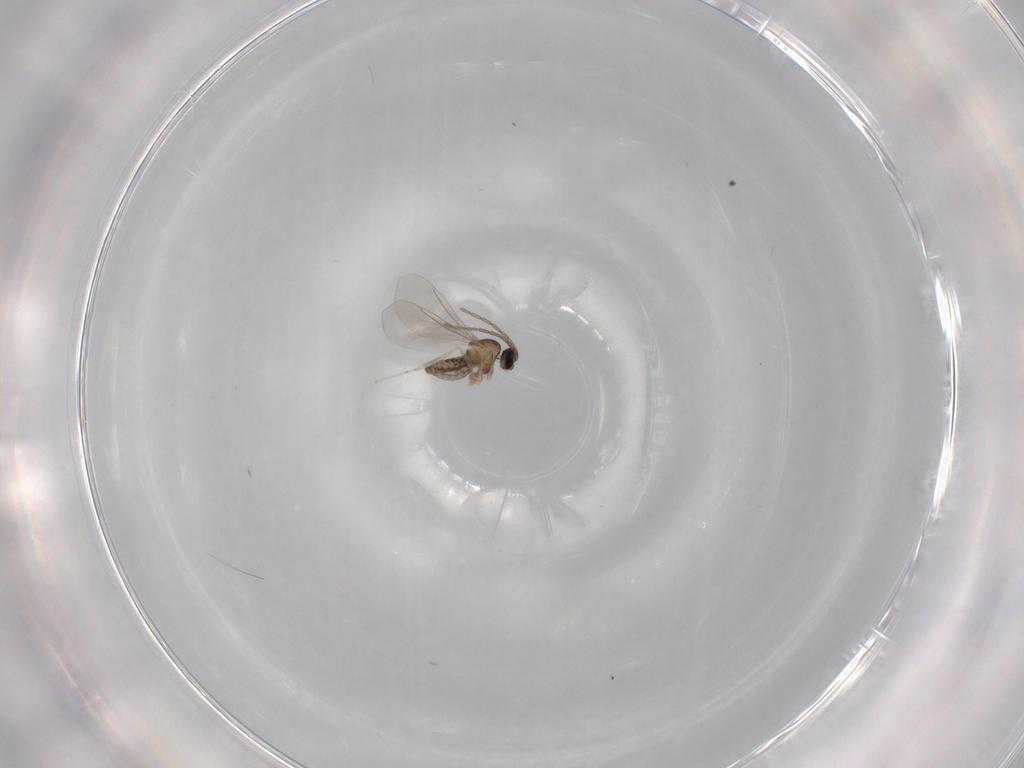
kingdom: Animalia
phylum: Arthropoda
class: Insecta
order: Diptera
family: Cecidomyiidae
